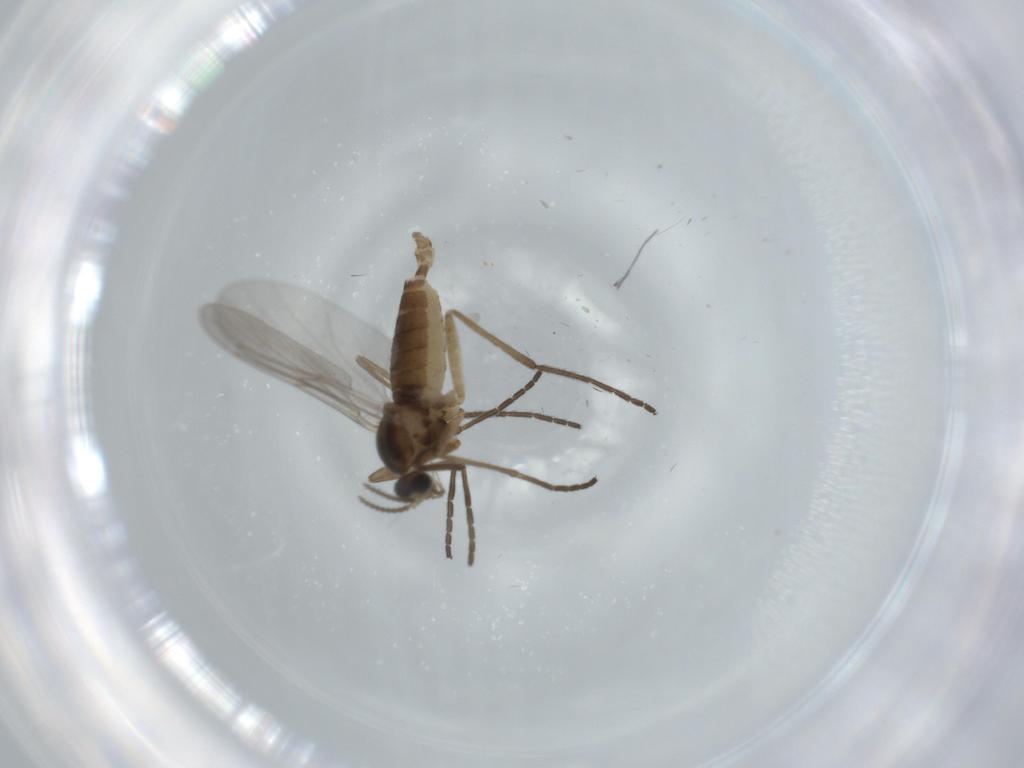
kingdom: Animalia
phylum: Arthropoda
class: Insecta
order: Diptera
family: Cecidomyiidae
